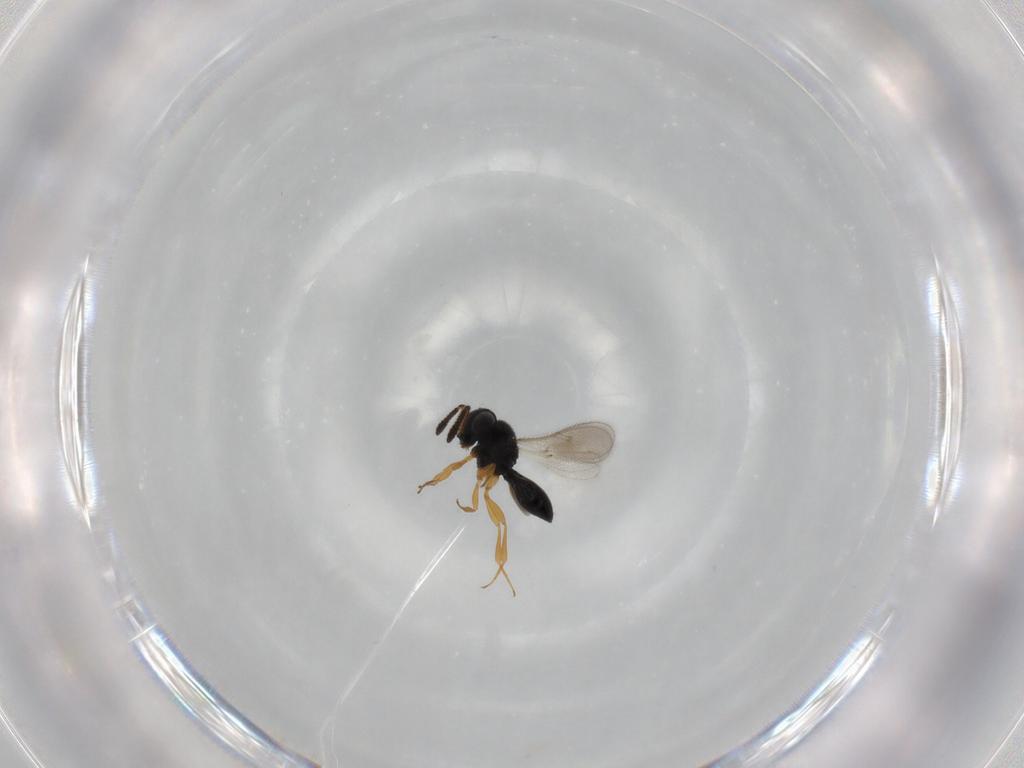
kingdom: Animalia
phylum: Arthropoda
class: Insecta
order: Hymenoptera
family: Scelionidae
